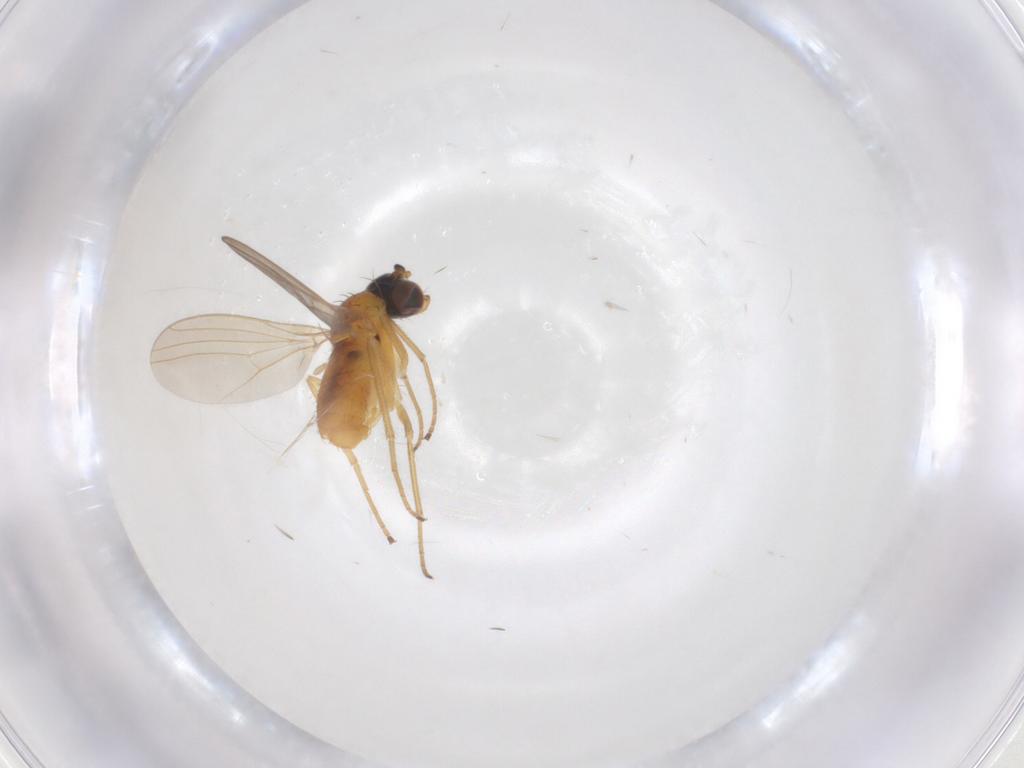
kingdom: Animalia
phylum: Arthropoda
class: Insecta
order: Diptera
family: Dolichopodidae
